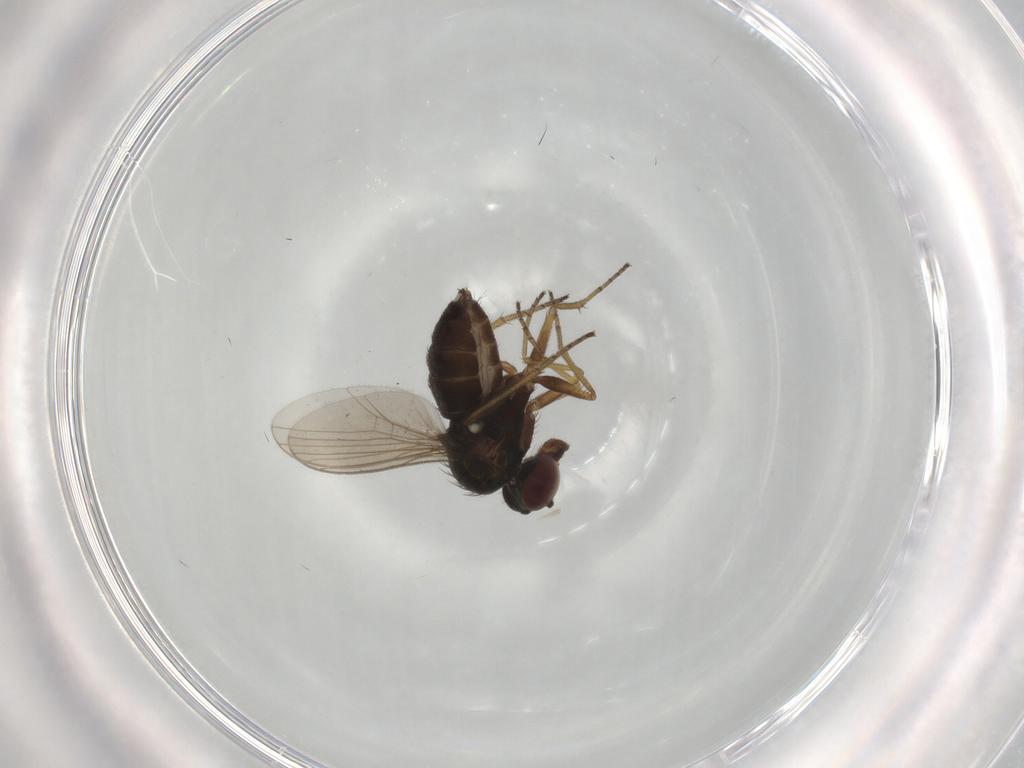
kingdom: Animalia
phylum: Arthropoda
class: Insecta
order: Diptera
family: Dolichopodidae
